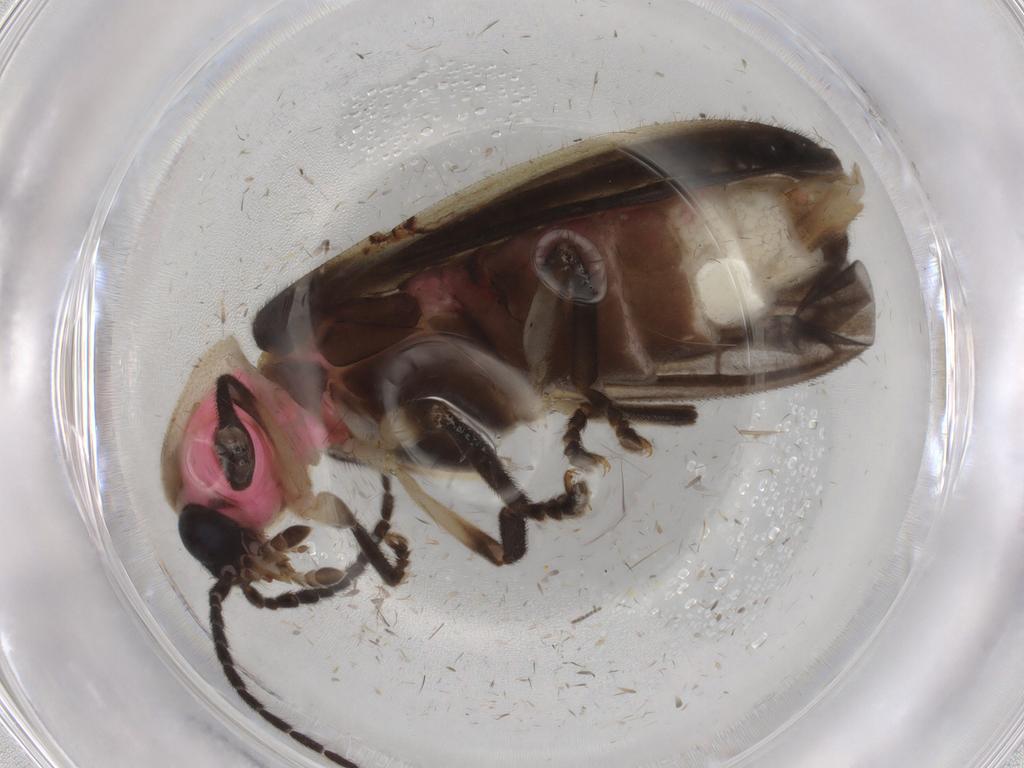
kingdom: Animalia
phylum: Arthropoda
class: Insecta
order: Coleoptera
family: Lampyridae
